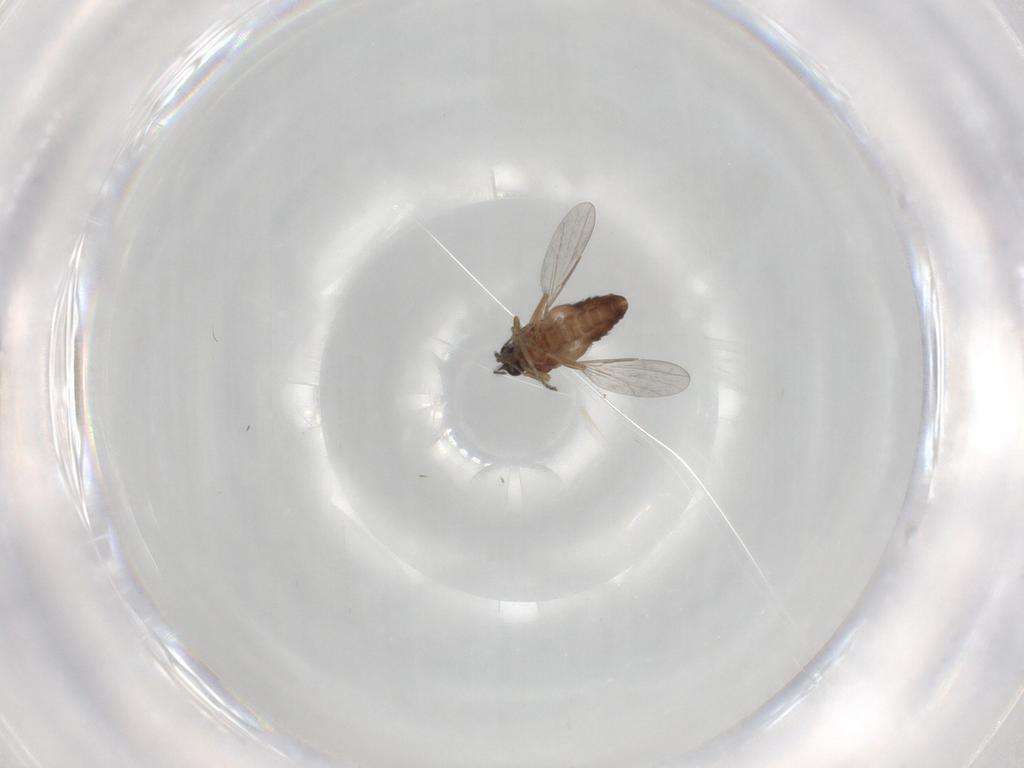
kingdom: Animalia
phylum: Arthropoda
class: Insecta
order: Diptera
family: Ceratopogonidae
